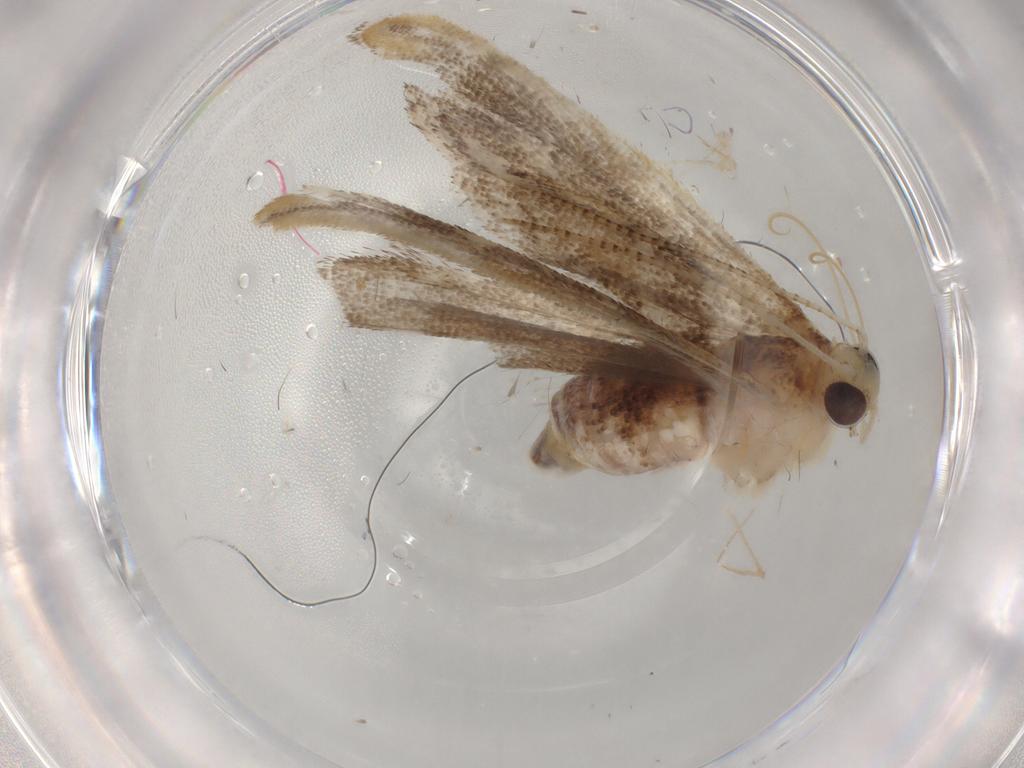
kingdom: Animalia
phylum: Arthropoda
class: Insecta
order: Lepidoptera
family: Crambidae
